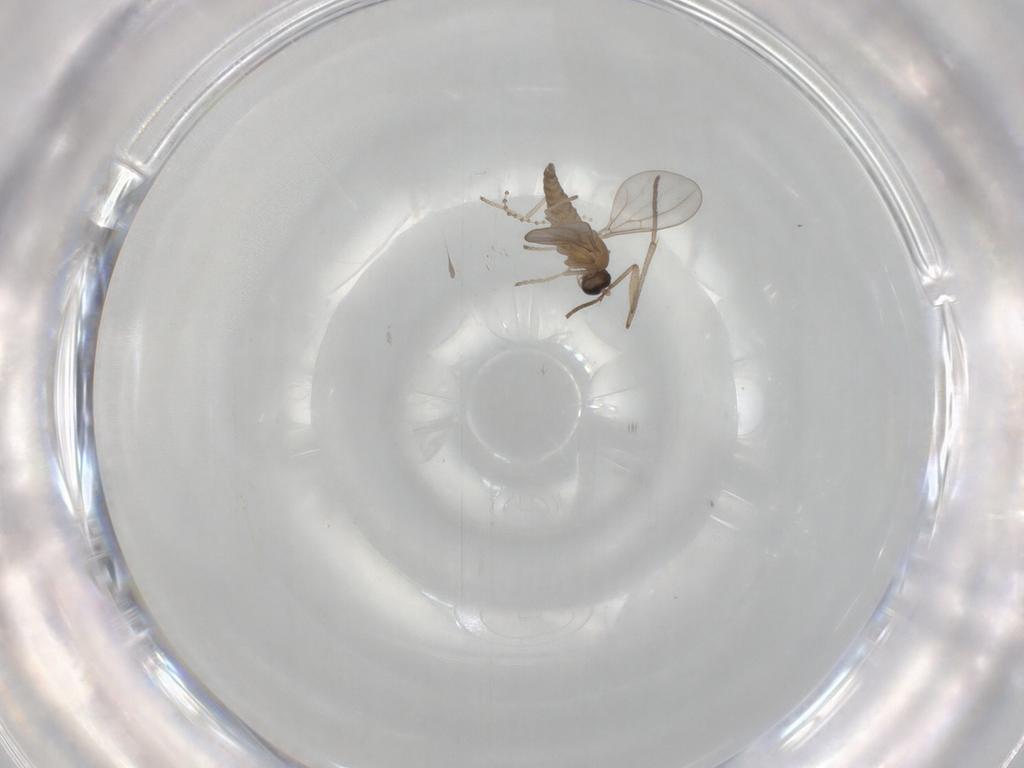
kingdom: Animalia
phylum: Arthropoda
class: Insecta
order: Diptera
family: Cecidomyiidae
